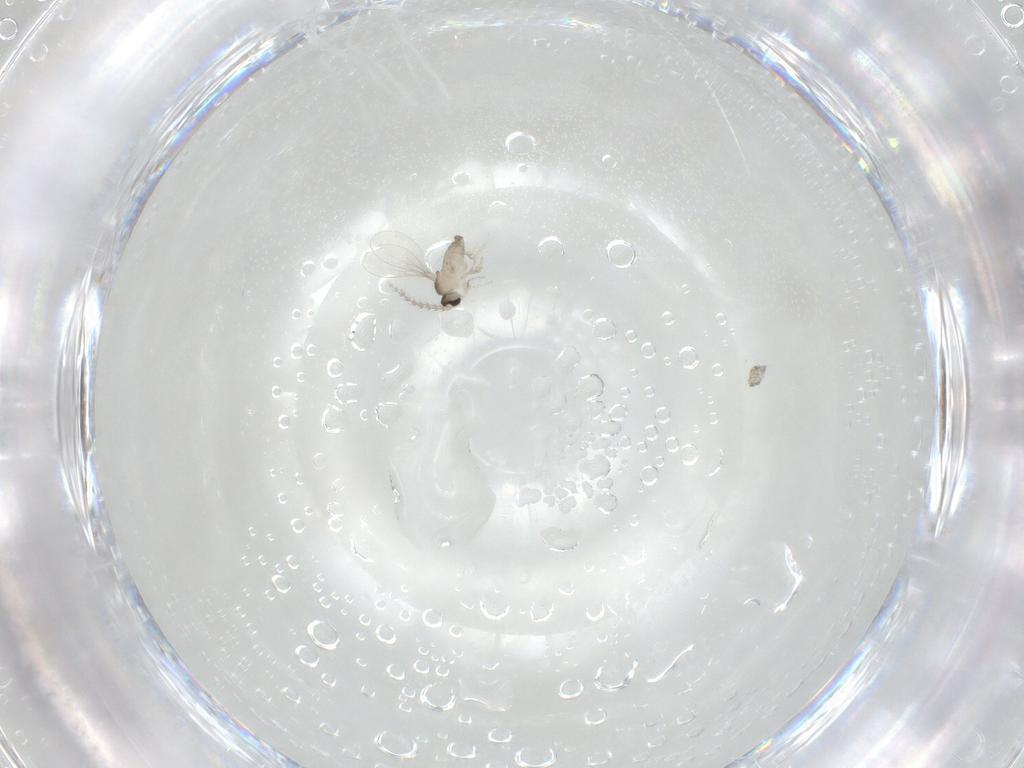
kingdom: Animalia
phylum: Arthropoda
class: Insecta
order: Diptera
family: Cecidomyiidae
